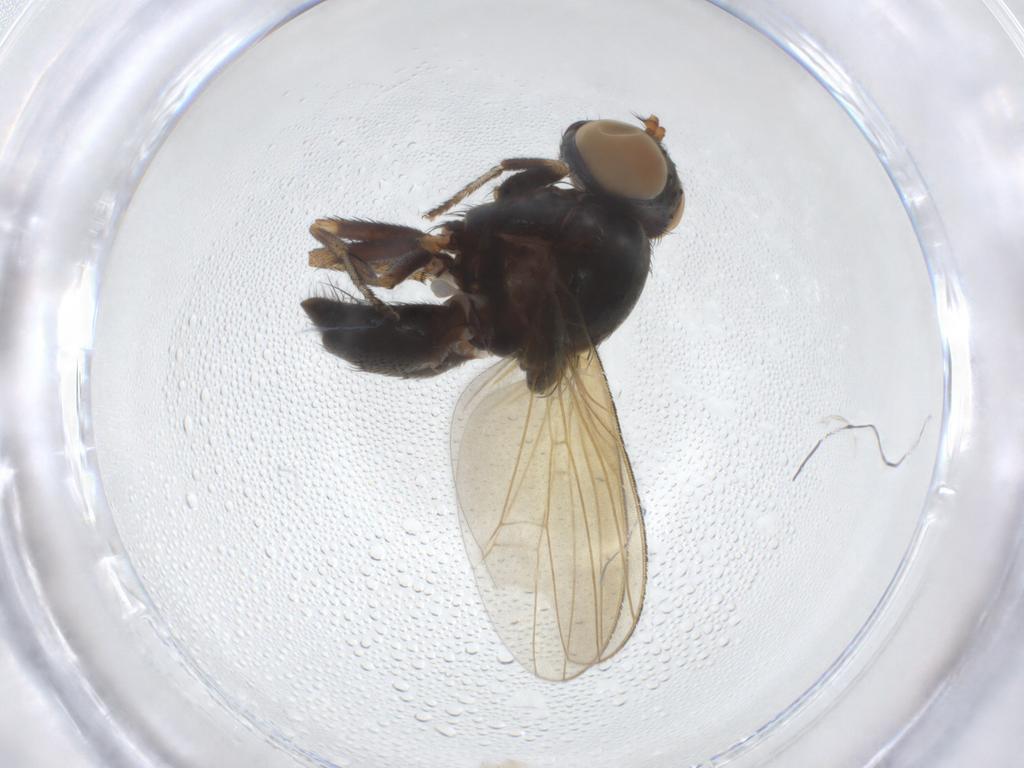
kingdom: Animalia
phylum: Arthropoda
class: Insecta
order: Diptera
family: Lauxaniidae
